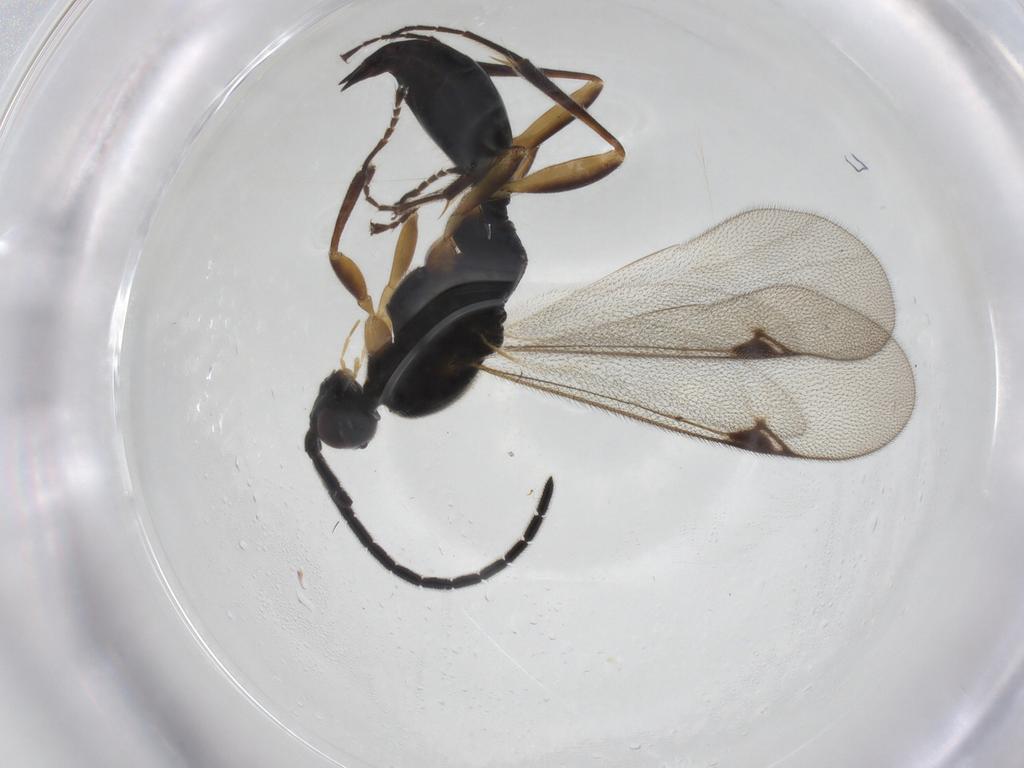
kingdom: Animalia
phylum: Arthropoda
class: Insecta
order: Hymenoptera
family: Proctotrupidae
